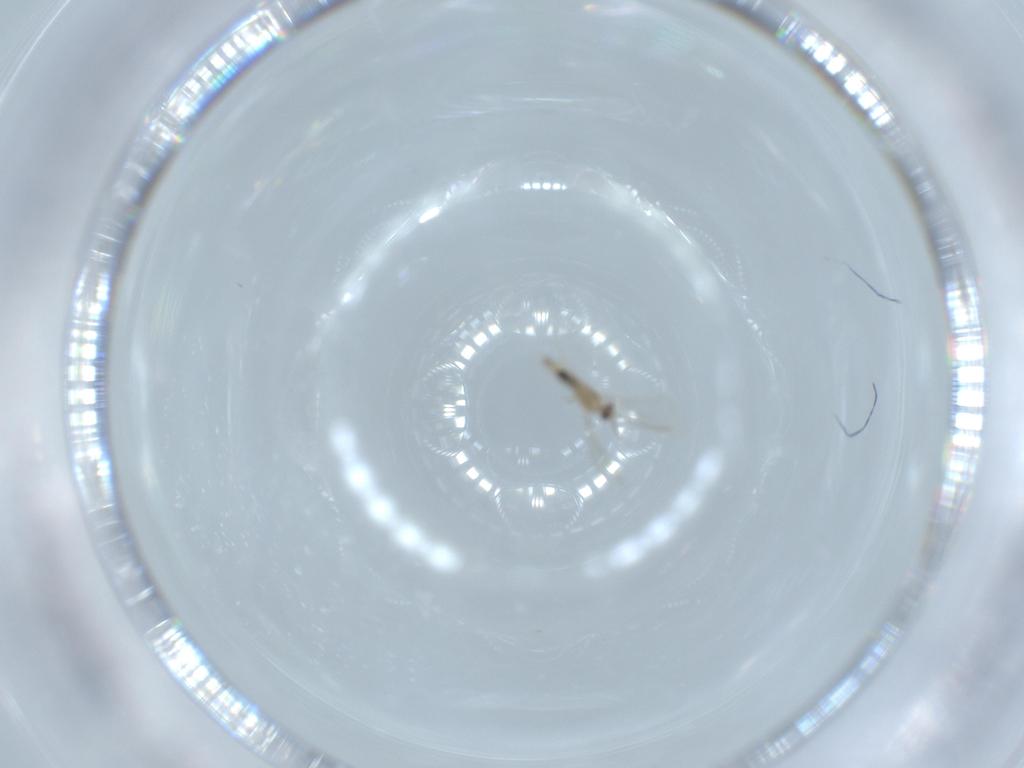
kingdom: Animalia
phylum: Arthropoda
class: Insecta
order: Diptera
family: Cecidomyiidae
